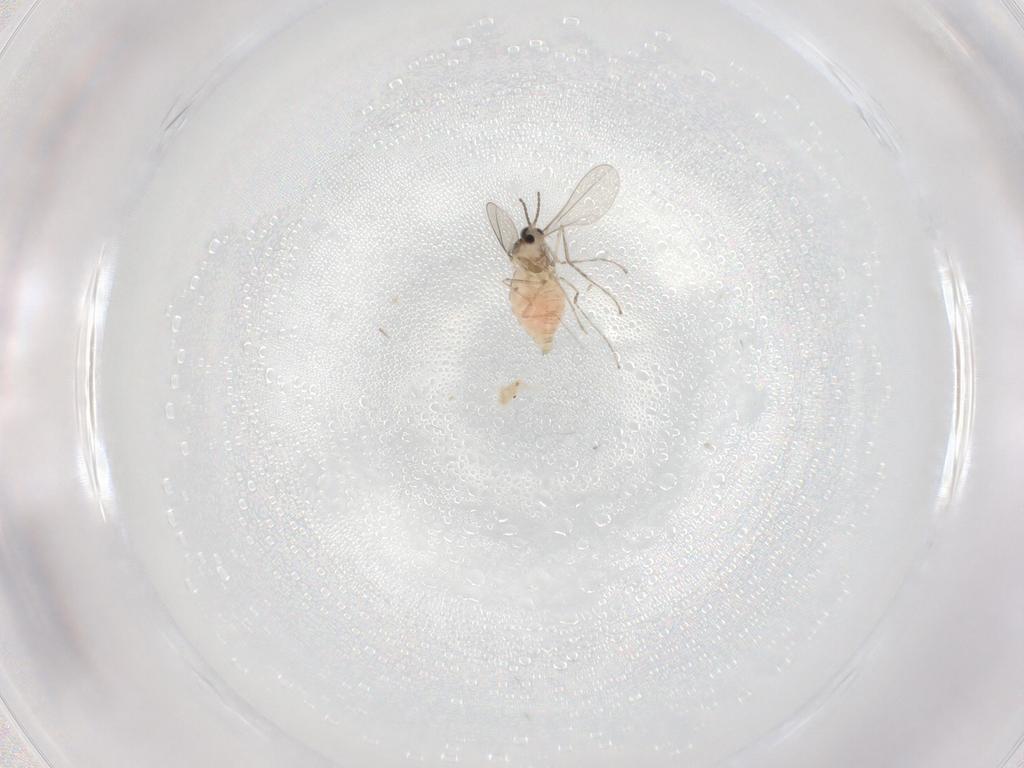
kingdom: Animalia
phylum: Arthropoda
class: Insecta
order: Diptera
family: Cecidomyiidae
